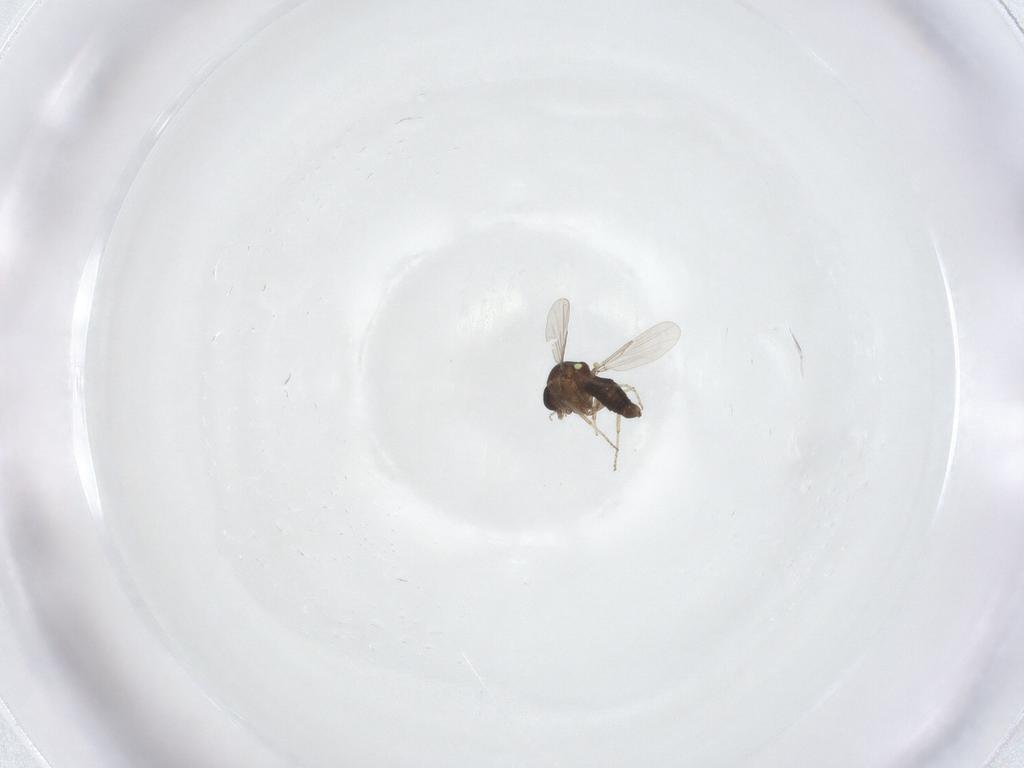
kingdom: Animalia
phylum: Arthropoda
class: Insecta
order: Diptera
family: Ceratopogonidae
